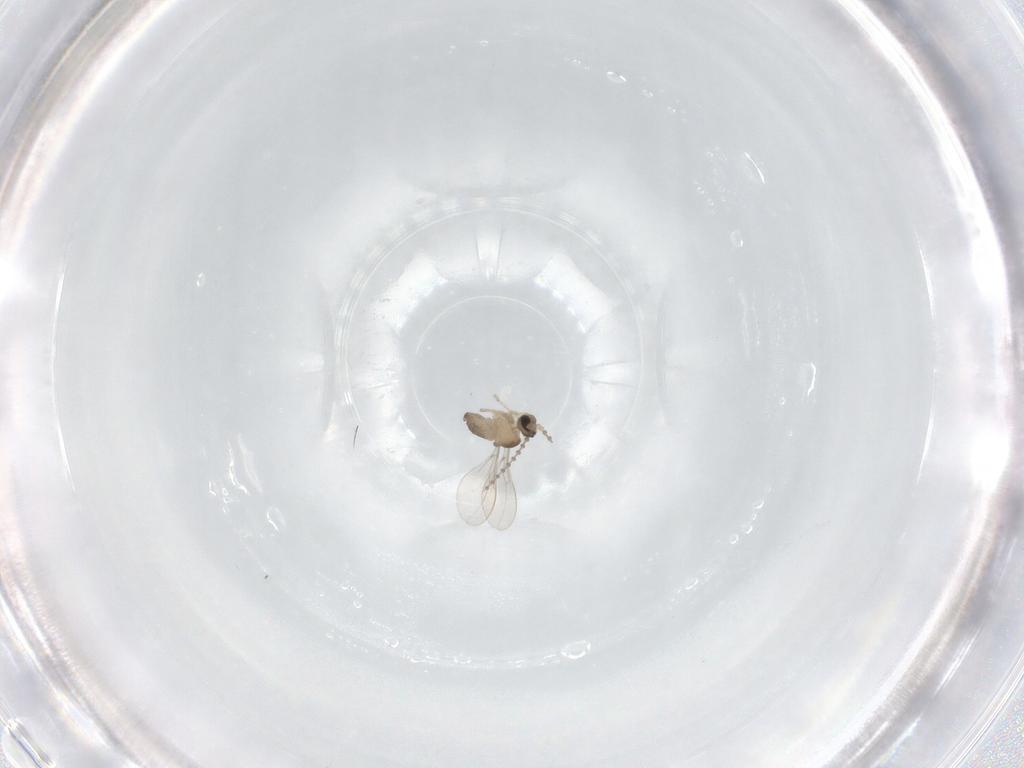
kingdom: Animalia
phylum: Arthropoda
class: Insecta
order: Diptera
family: Cecidomyiidae
